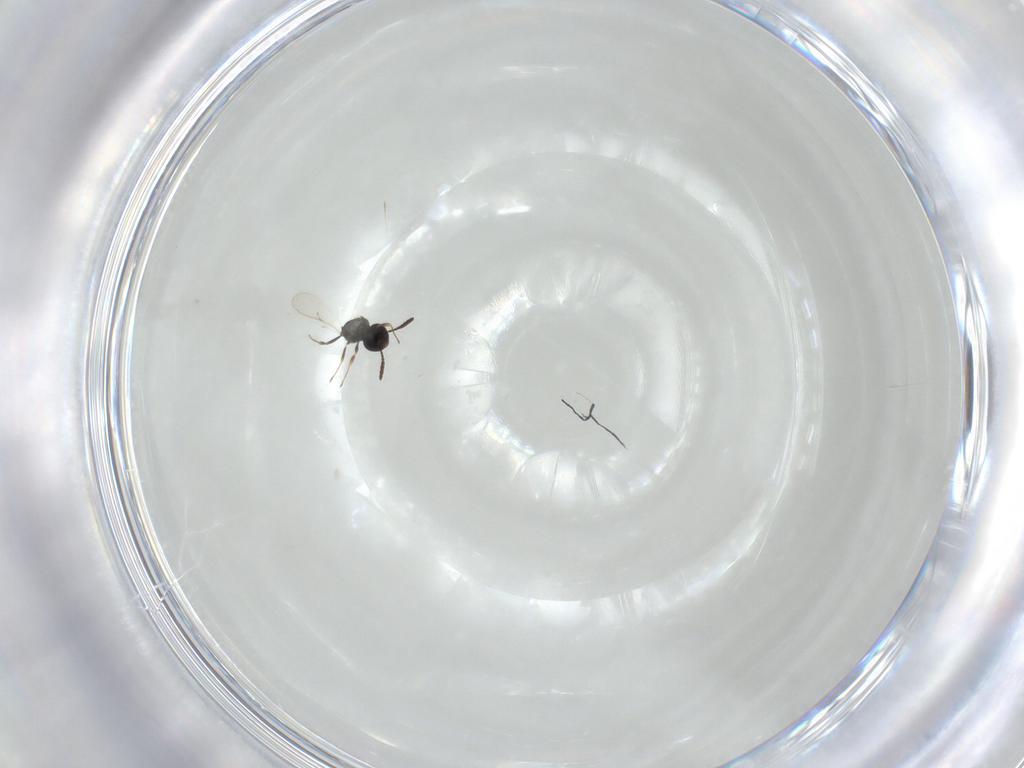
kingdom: Animalia
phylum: Arthropoda
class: Insecta
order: Hymenoptera
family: Scelionidae
